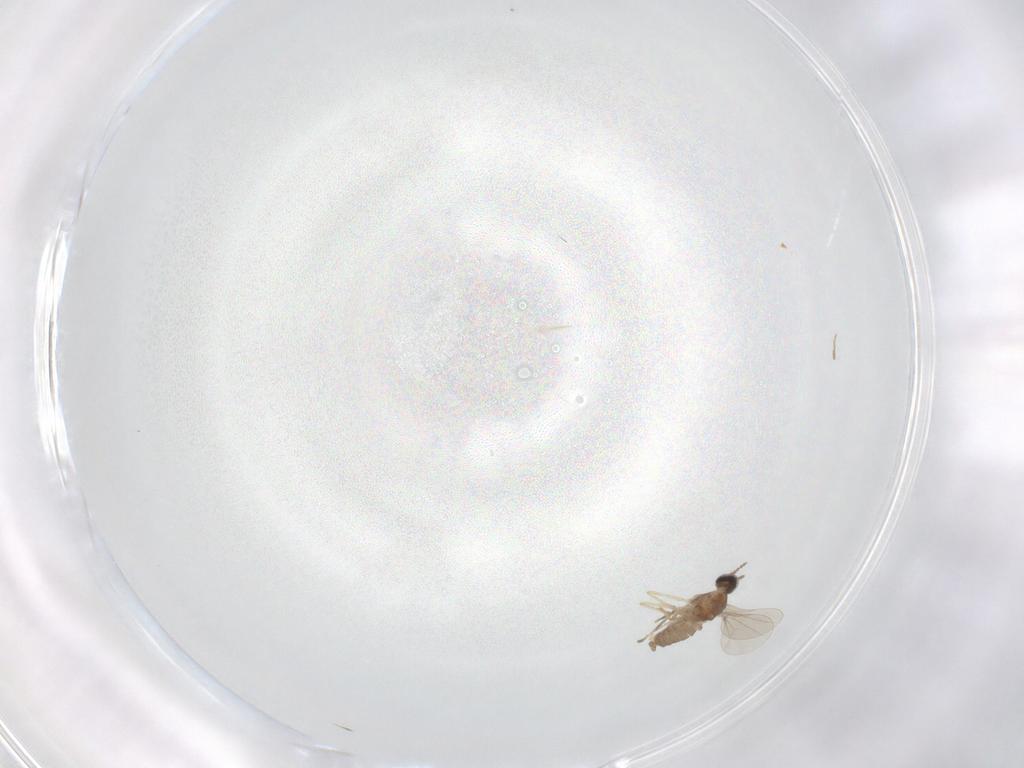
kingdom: Animalia
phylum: Arthropoda
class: Insecta
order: Diptera
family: Cecidomyiidae
